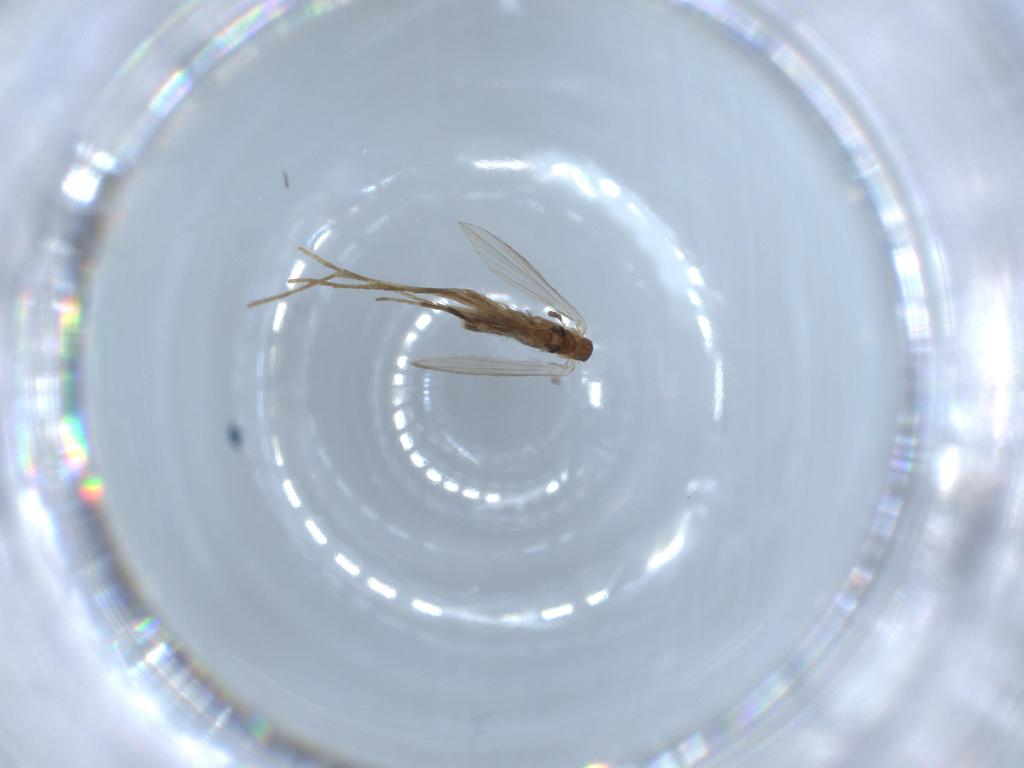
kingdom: Animalia
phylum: Arthropoda
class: Insecta
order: Diptera
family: Psychodidae
